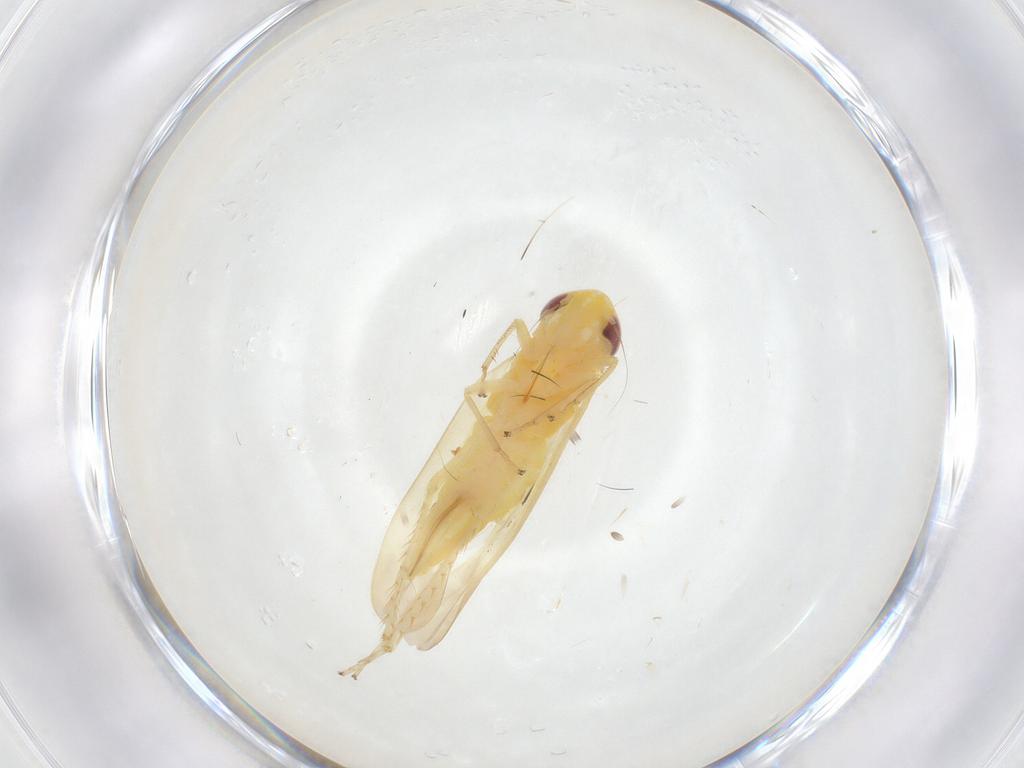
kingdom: Animalia
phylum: Arthropoda
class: Insecta
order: Hemiptera
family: Cicadellidae
